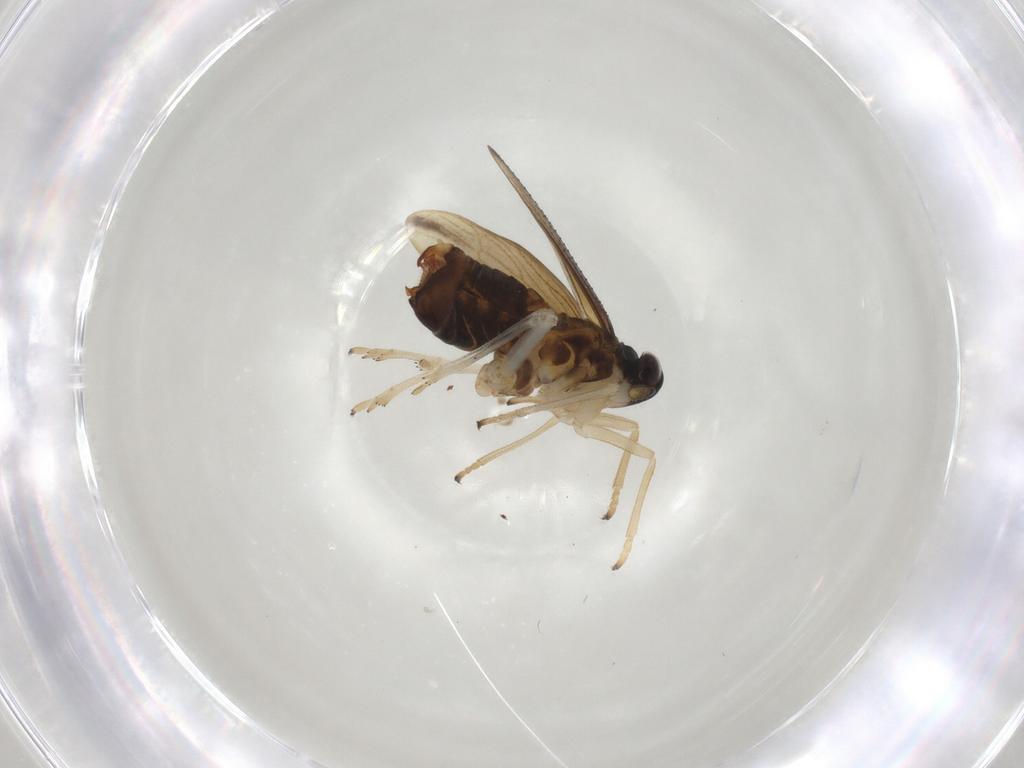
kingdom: Animalia
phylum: Arthropoda
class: Insecta
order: Hemiptera
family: Delphacidae
